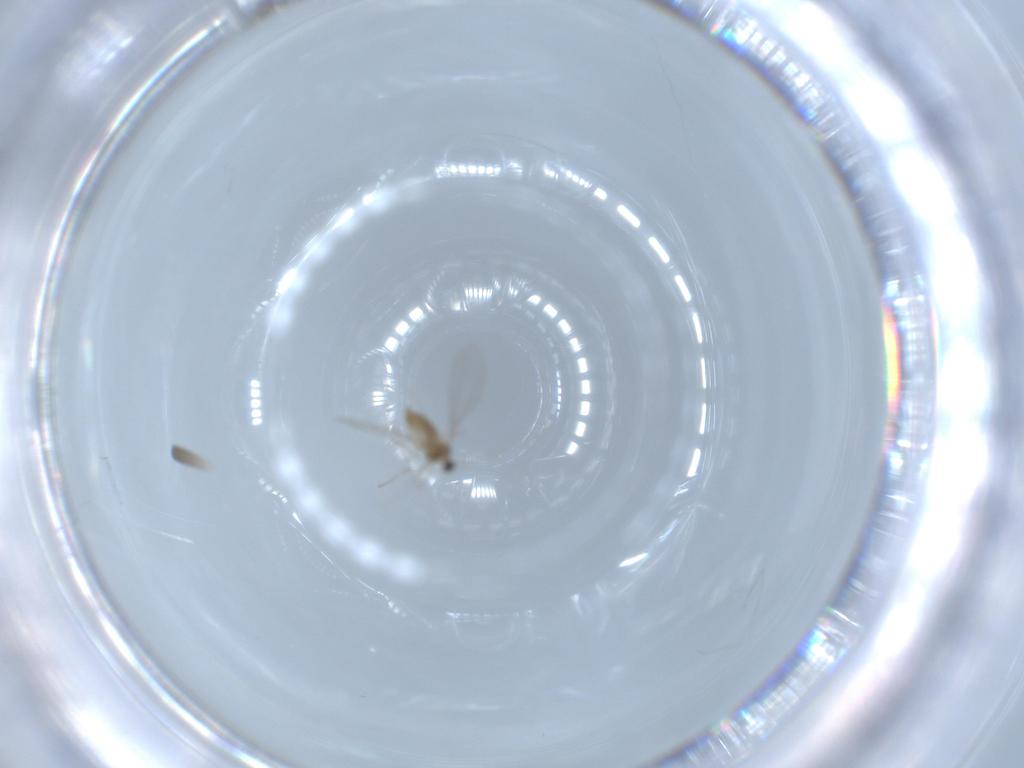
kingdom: Animalia
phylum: Arthropoda
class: Insecta
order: Diptera
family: Cecidomyiidae
